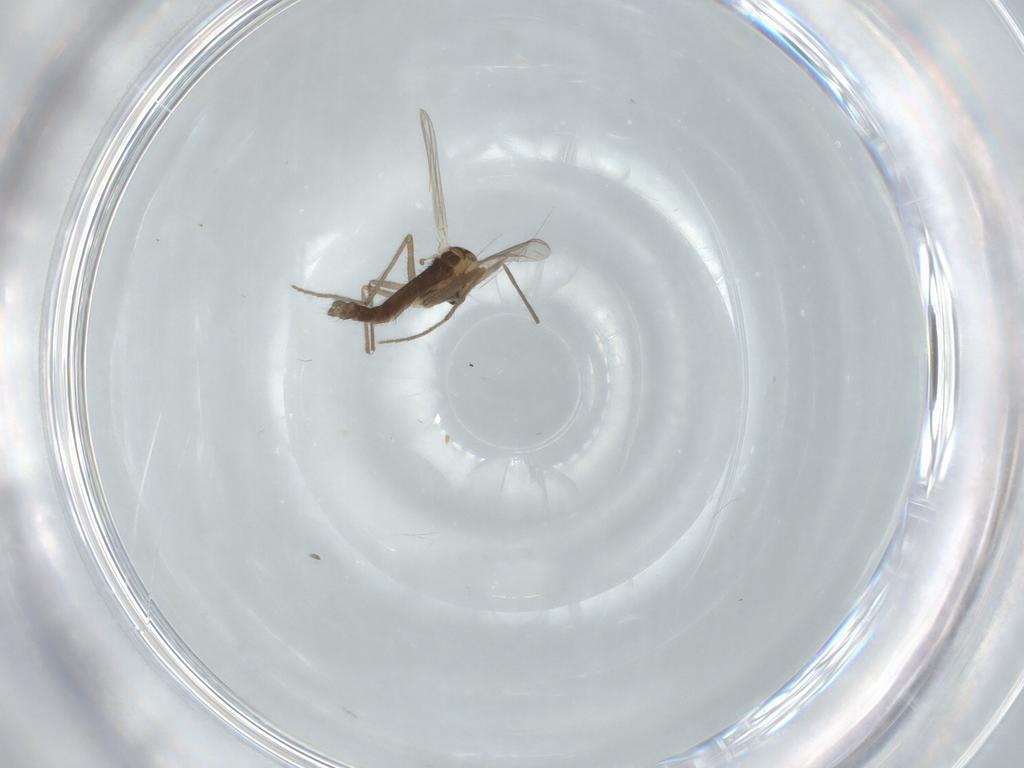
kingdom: Animalia
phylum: Arthropoda
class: Insecta
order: Diptera
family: Chironomidae
